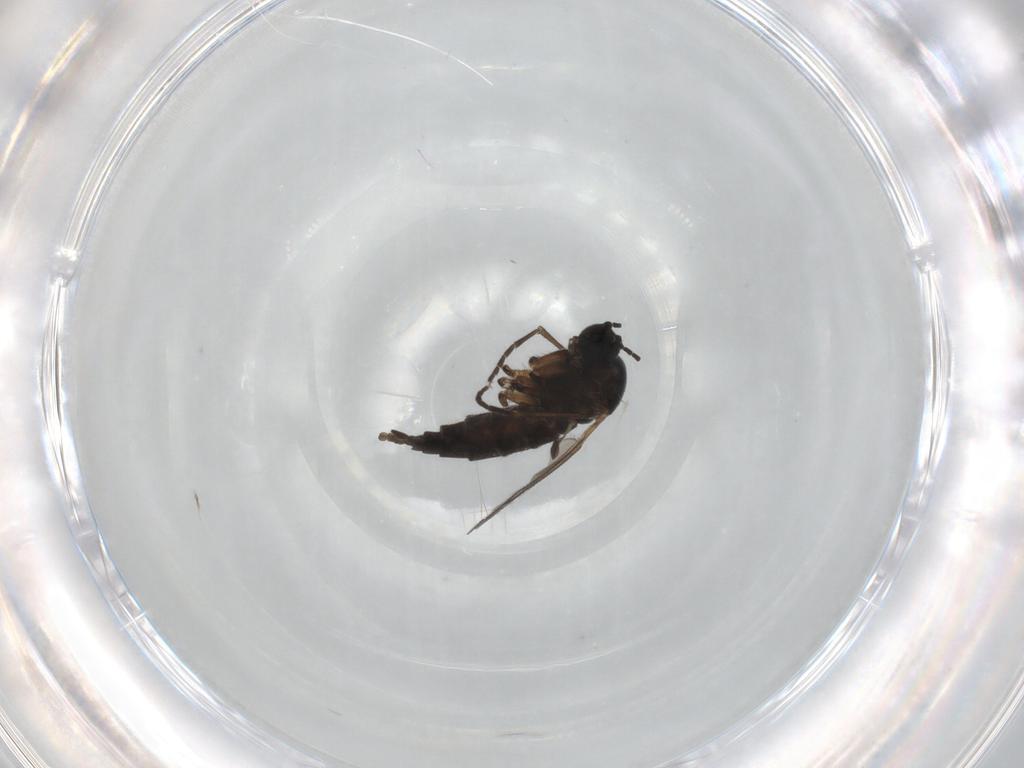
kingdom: Animalia
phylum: Arthropoda
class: Insecta
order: Diptera
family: Sciaridae
